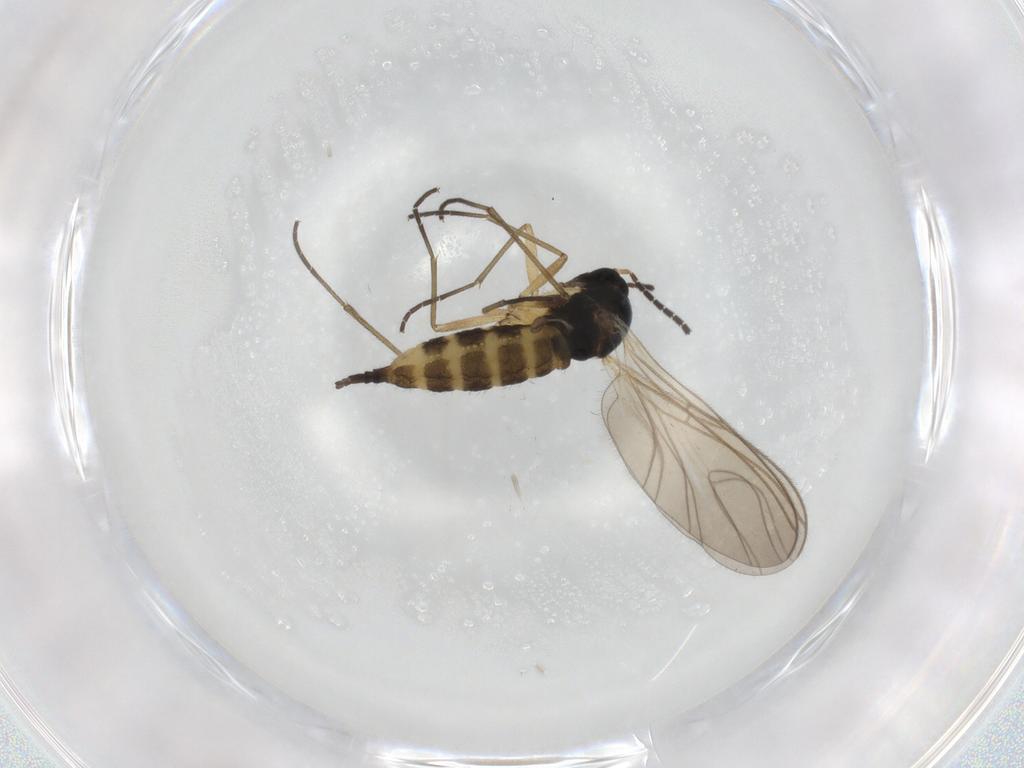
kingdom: Animalia
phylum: Arthropoda
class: Insecta
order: Diptera
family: Sciaridae
